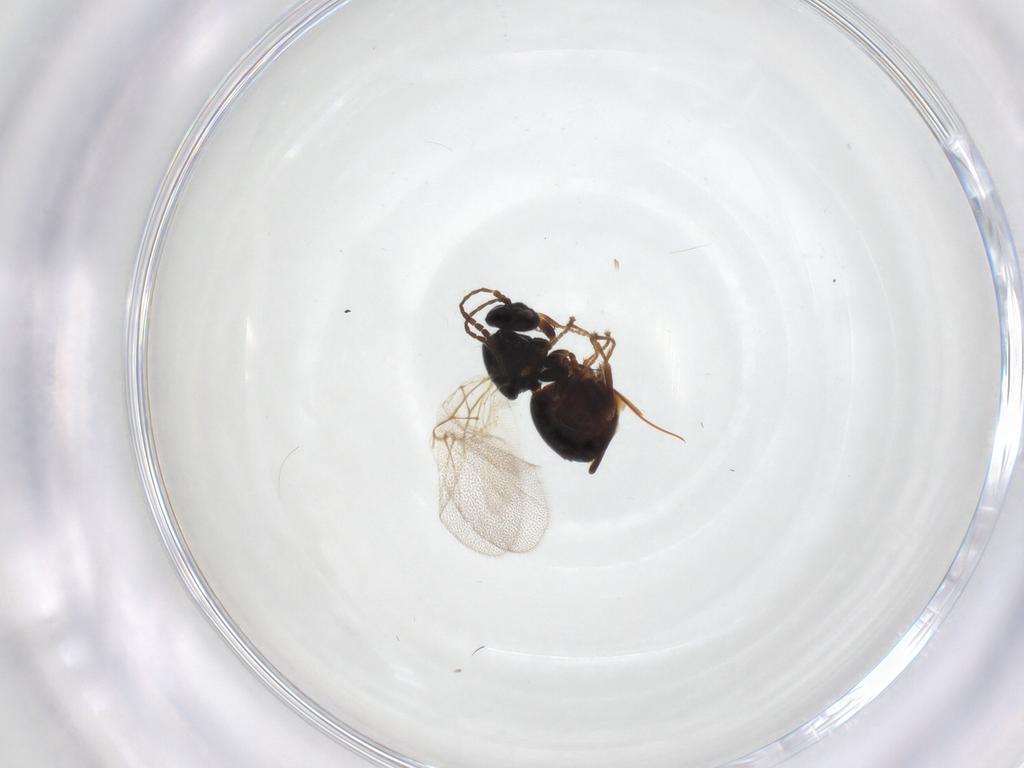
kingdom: Animalia
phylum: Arthropoda
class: Insecta
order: Hymenoptera
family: Cynipidae
